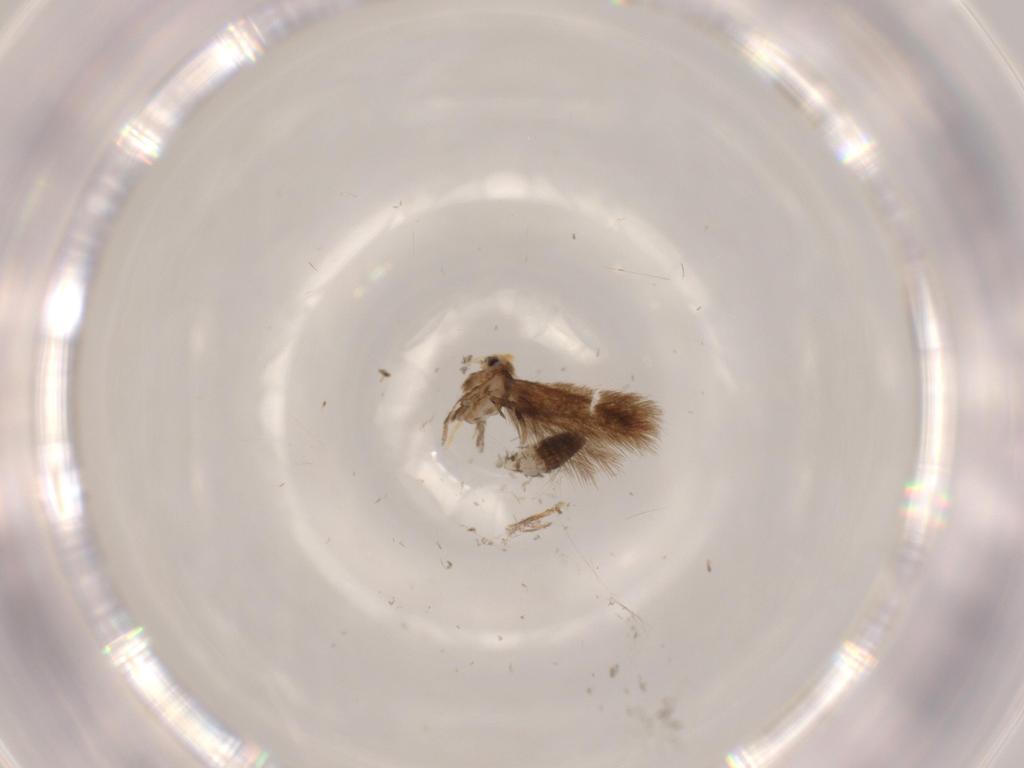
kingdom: Animalia
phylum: Arthropoda
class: Insecta
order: Lepidoptera
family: Nepticulidae
